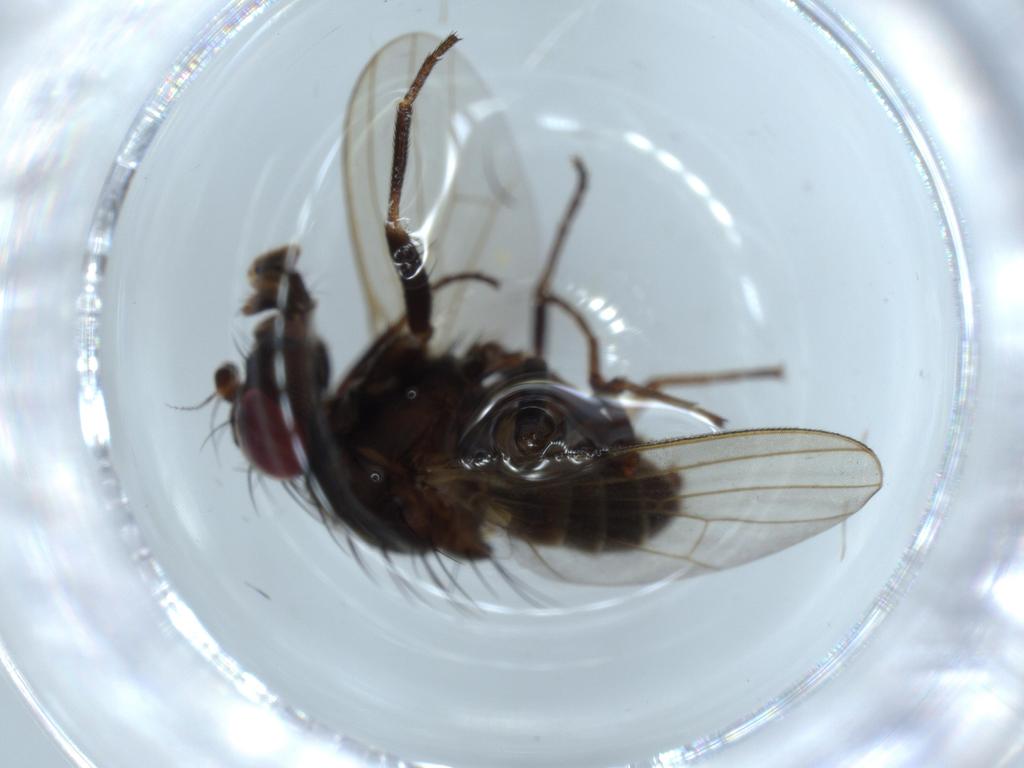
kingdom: Animalia
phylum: Arthropoda
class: Insecta
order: Diptera
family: Odiniidae
